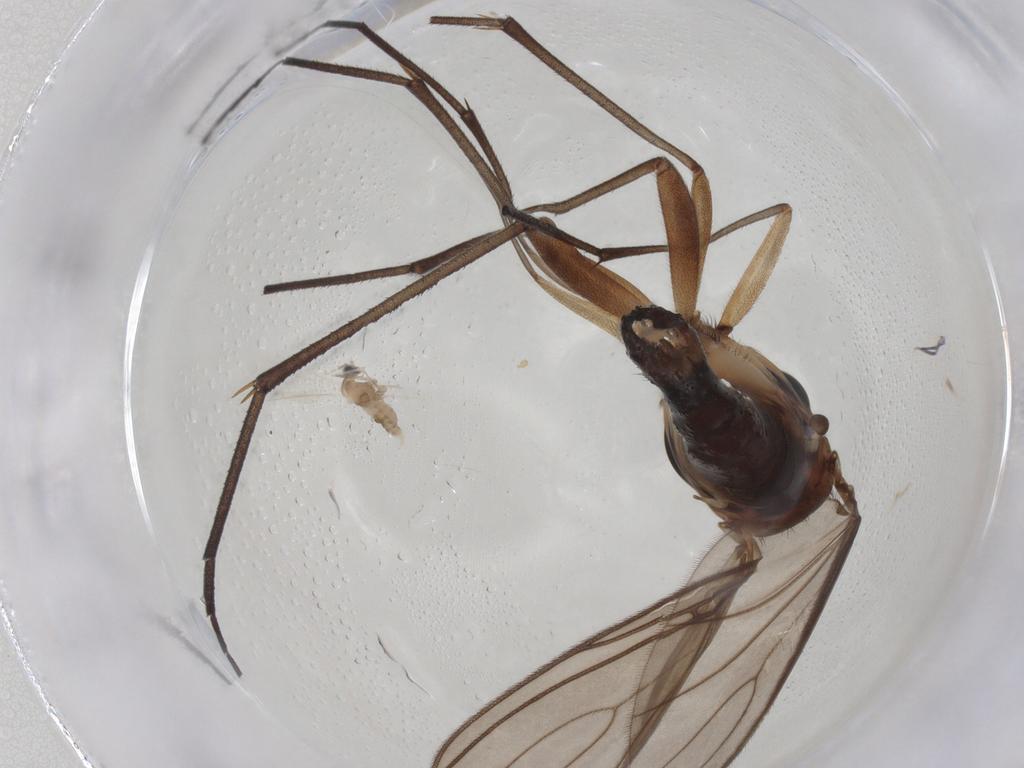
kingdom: Animalia
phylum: Arthropoda
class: Insecta
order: Diptera
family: Sciaridae
